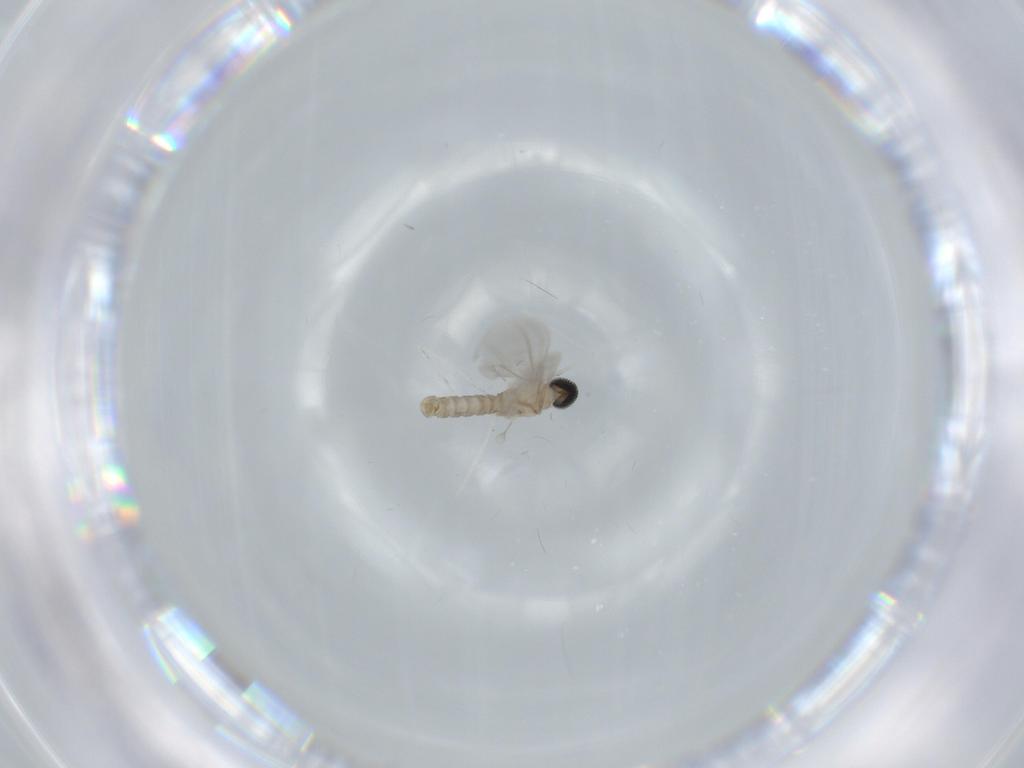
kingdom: Animalia
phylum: Arthropoda
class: Insecta
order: Diptera
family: Cecidomyiidae
